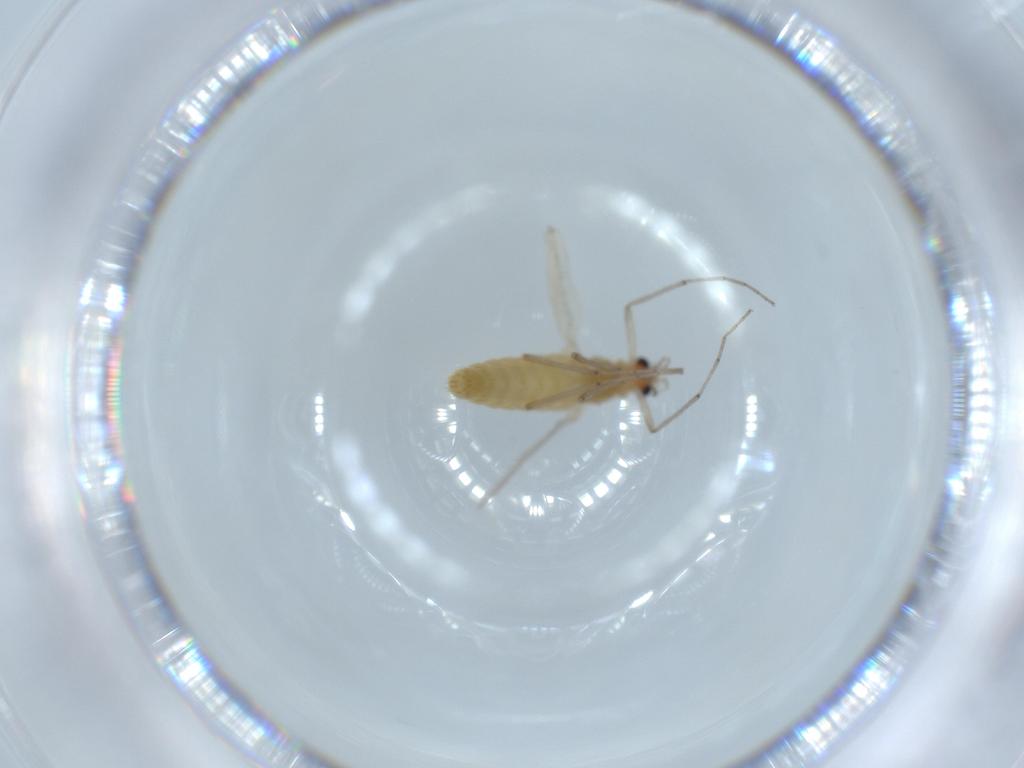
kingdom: Animalia
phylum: Arthropoda
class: Insecta
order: Diptera
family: Chironomidae
